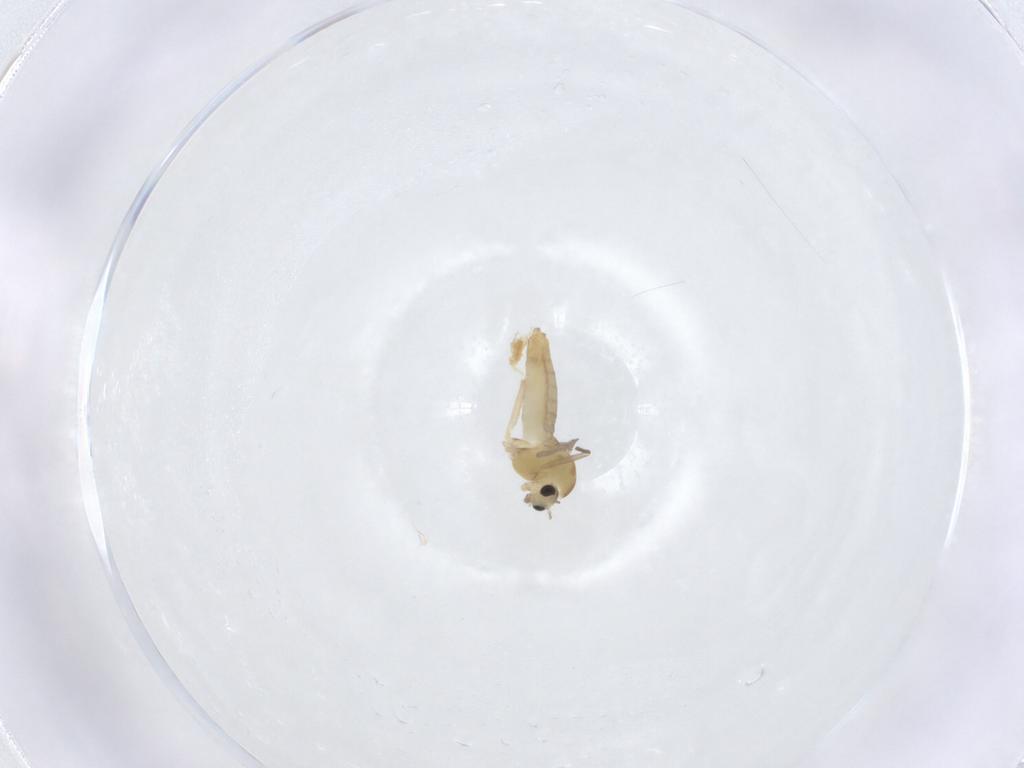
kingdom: Animalia
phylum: Arthropoda
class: Insecta
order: Diptera
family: Chironomidae
